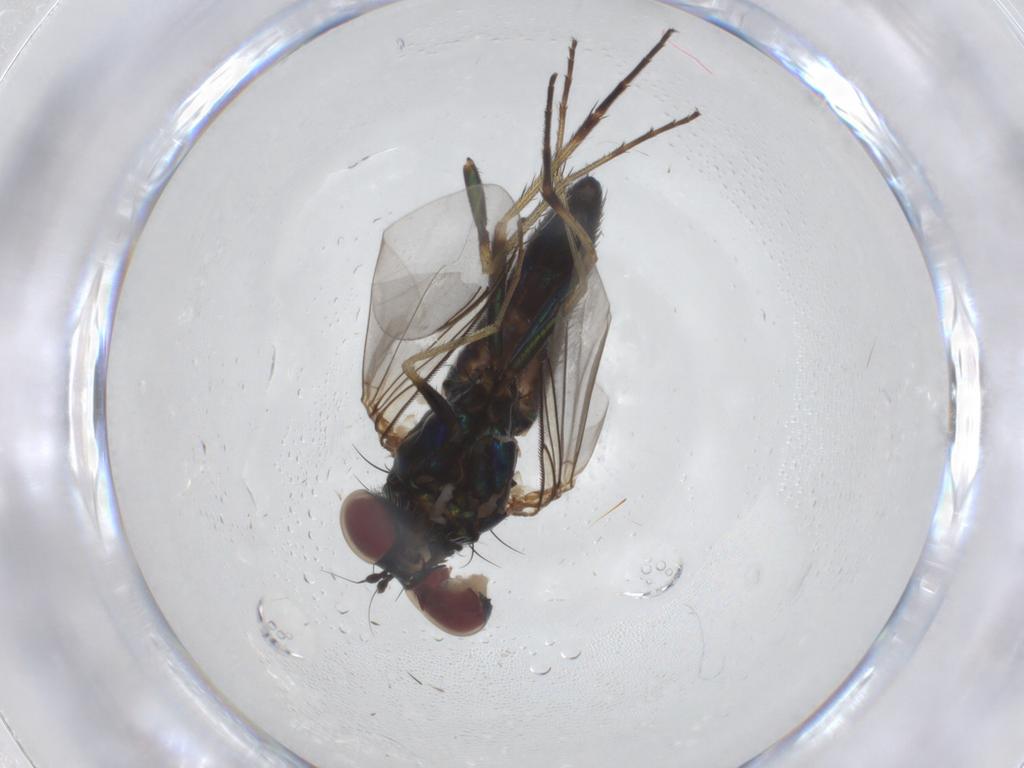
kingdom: Animalia
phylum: Arthropoda
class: Insecta
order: Diptera
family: Dolichopodidae
